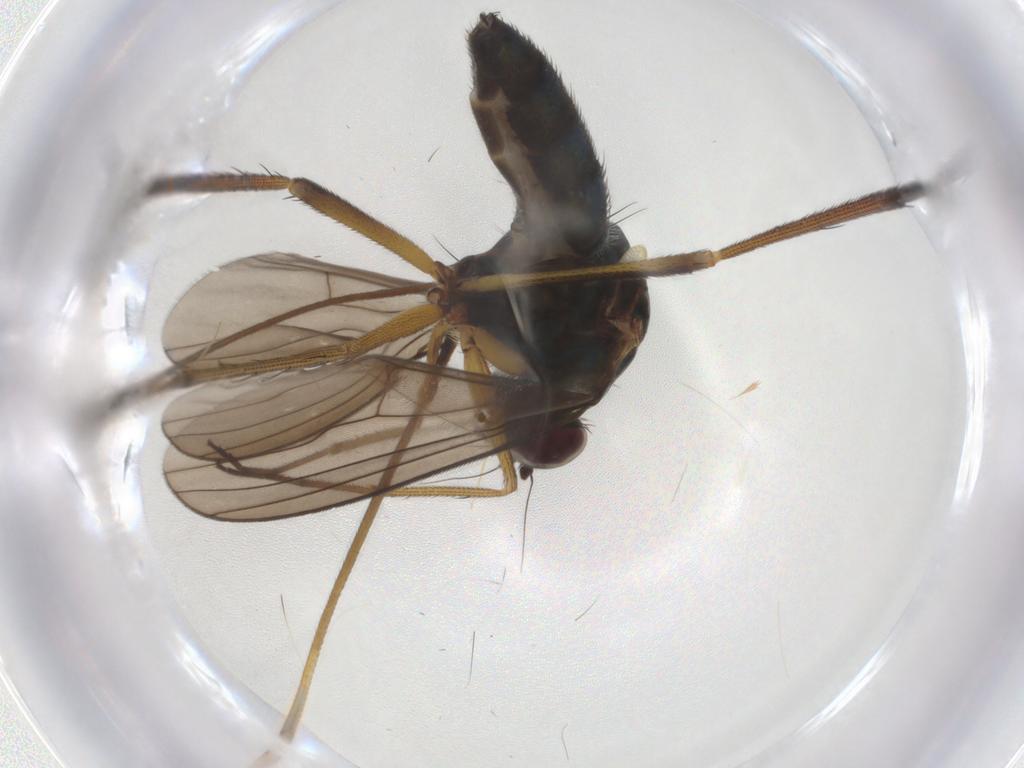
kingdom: Animalia
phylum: Arthropoda
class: Insecta
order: Diptera
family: Dolichopodidae
